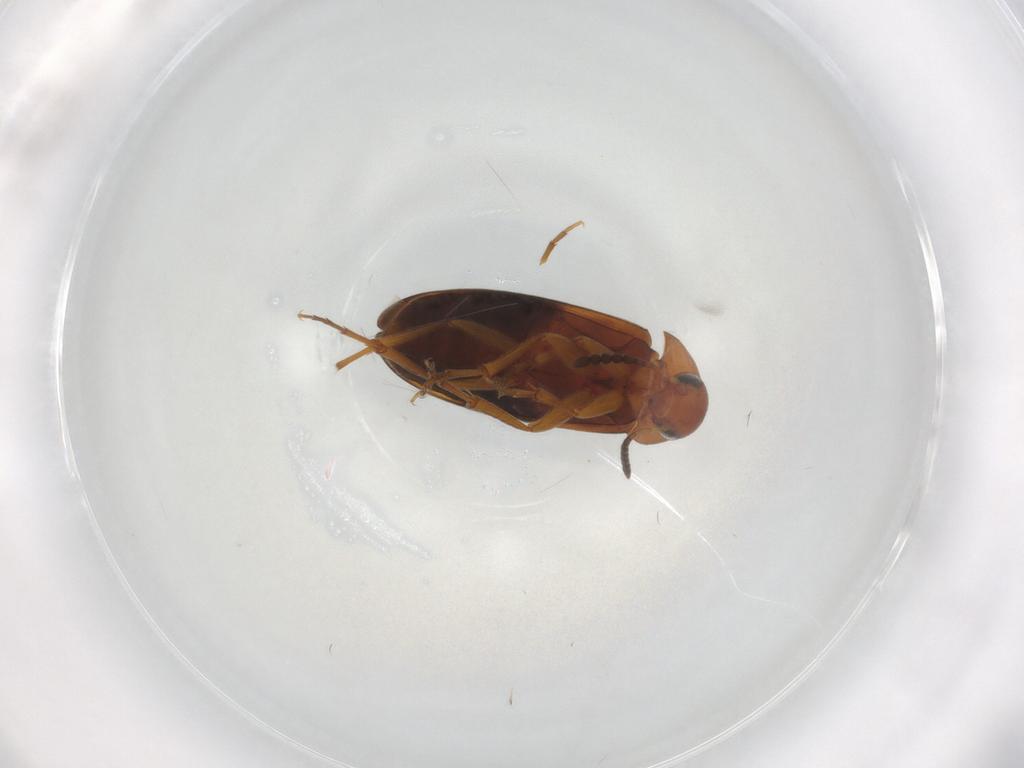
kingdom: Animalia
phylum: Arthropoda
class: Insecta
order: Coleoptera
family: Scraptiidae
